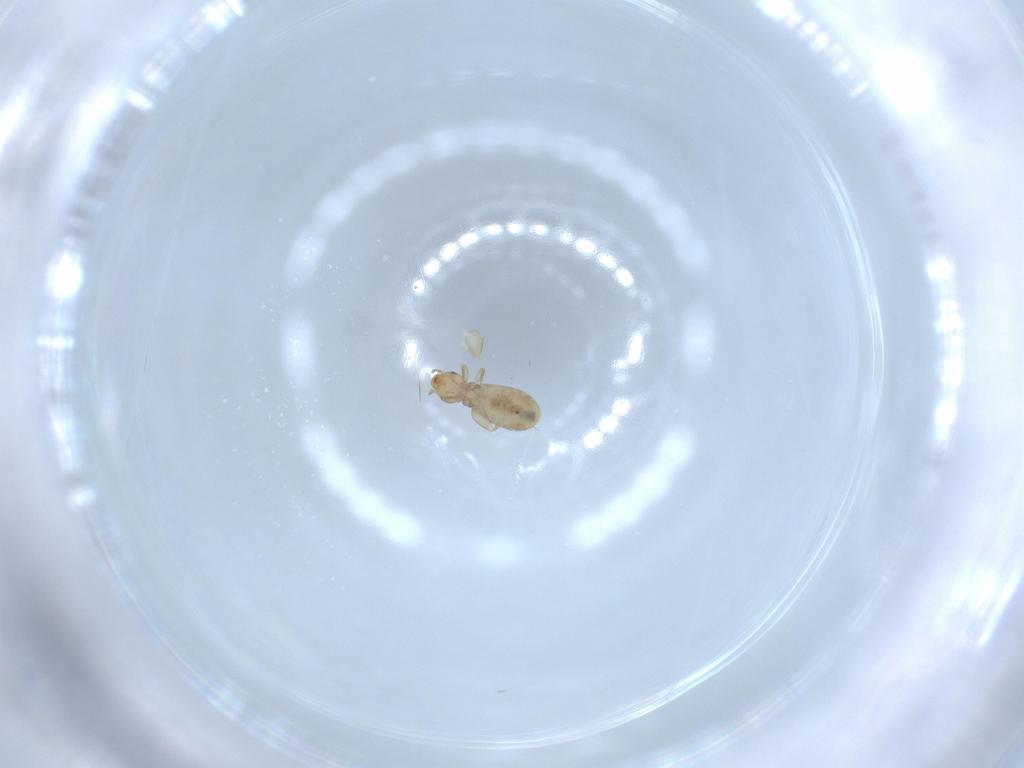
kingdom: Animalia
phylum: Arthropoda
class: Insecta
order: Psocodea
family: Liposcelididae
